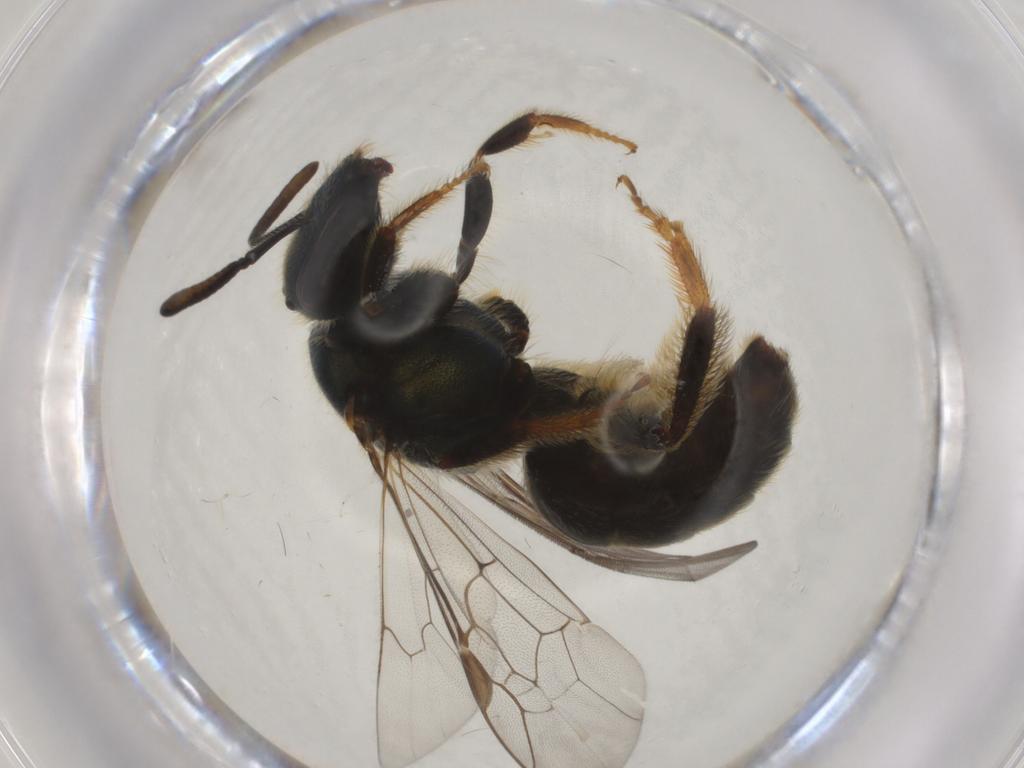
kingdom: Animalia
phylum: Arthropoda
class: Insecta
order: Hymenoptera
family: Halictidae
